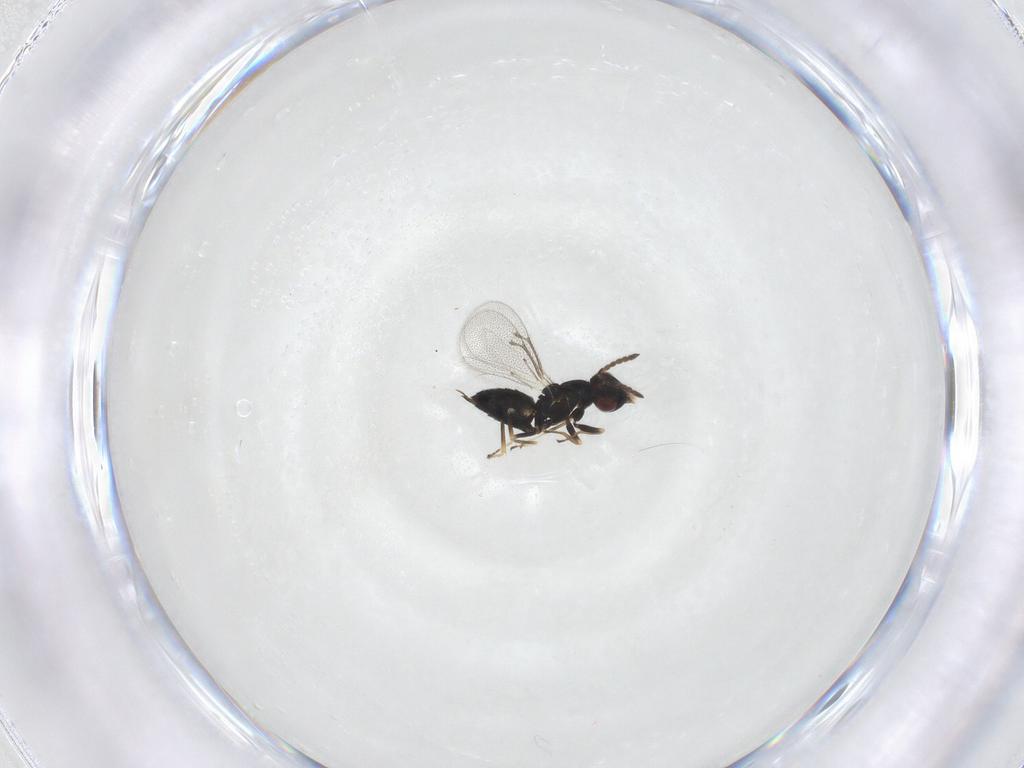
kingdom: Animalia
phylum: Arthropoda
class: Insecta
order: Hymenoptera
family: Eulophidae
